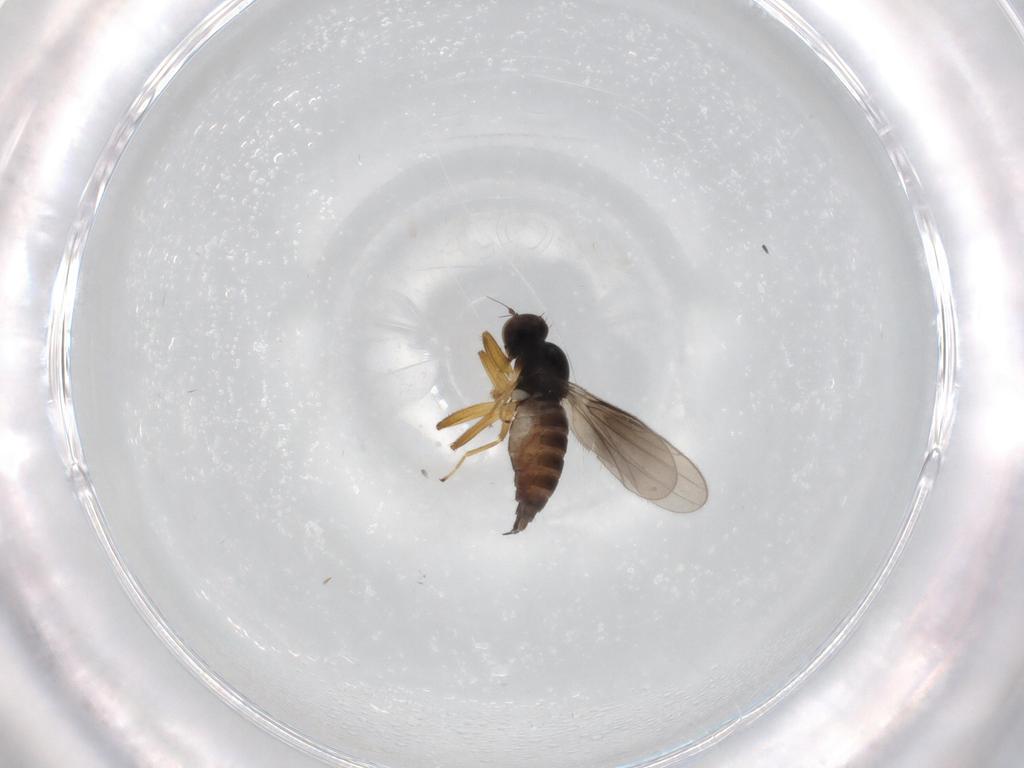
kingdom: Animalia
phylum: Arthropoda
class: Insecta
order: Diptera
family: Hybotidae
